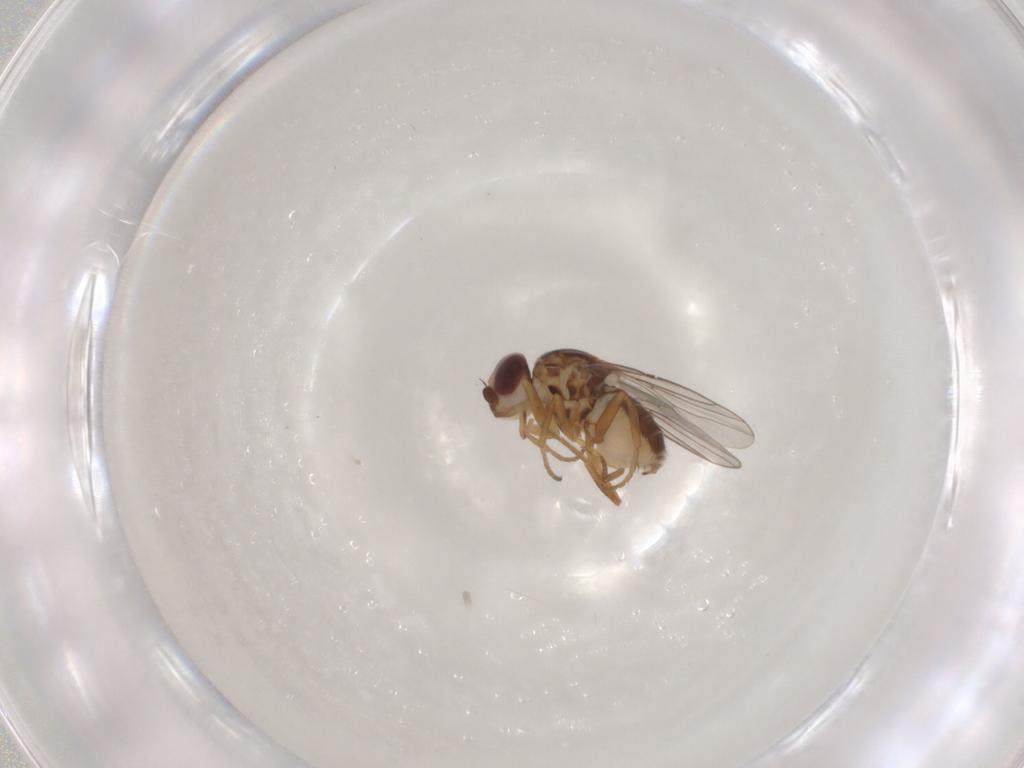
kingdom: Animalia
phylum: Arthropoda
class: Insecta
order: Diptera
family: Chloropidae
